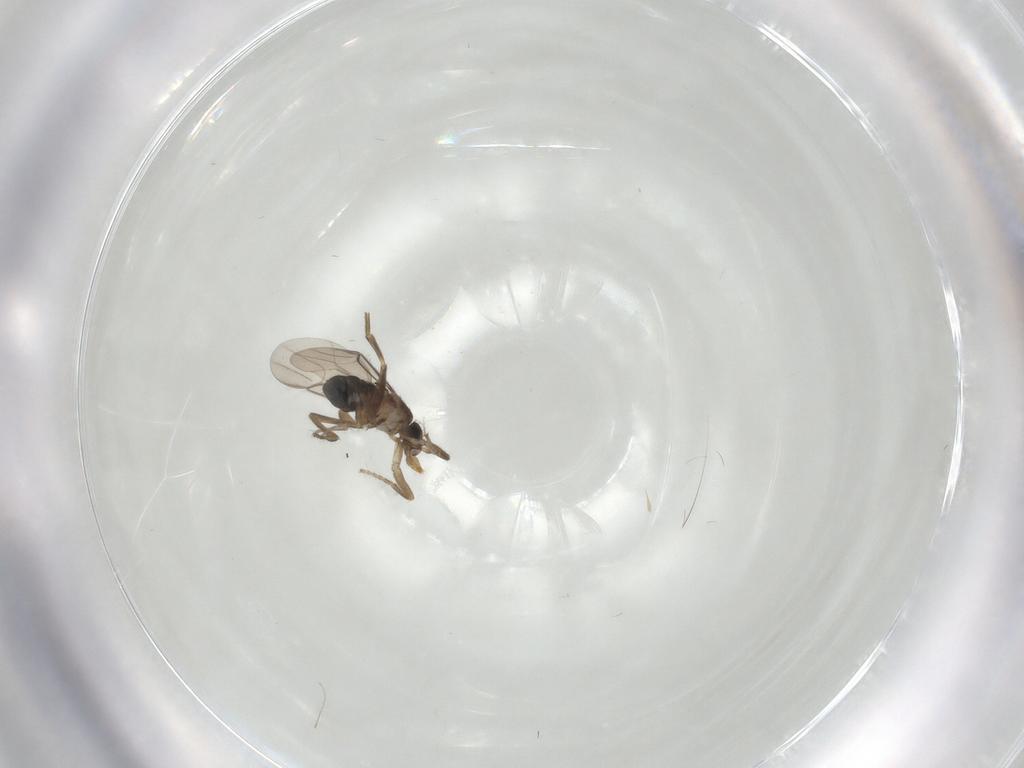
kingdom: Animalia
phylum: Arthropoda
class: Insecta
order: Diptera
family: Phoridae
